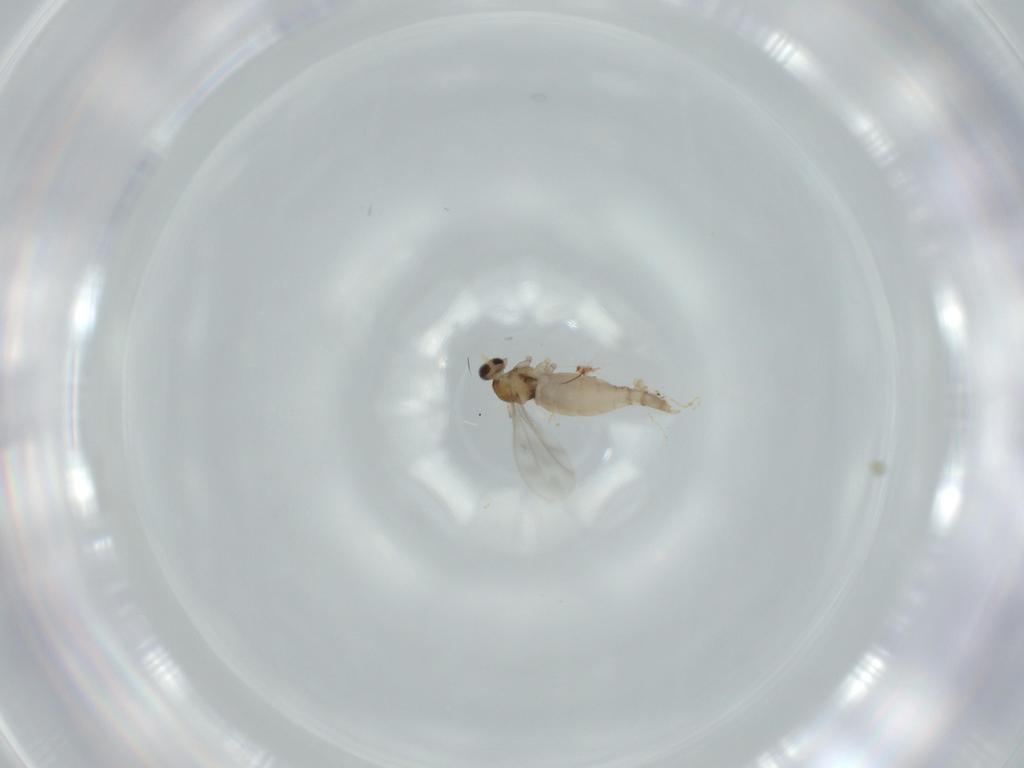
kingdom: Animalia
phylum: Arthropoda
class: Insecta
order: Diptera
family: Cecidomyiidae
